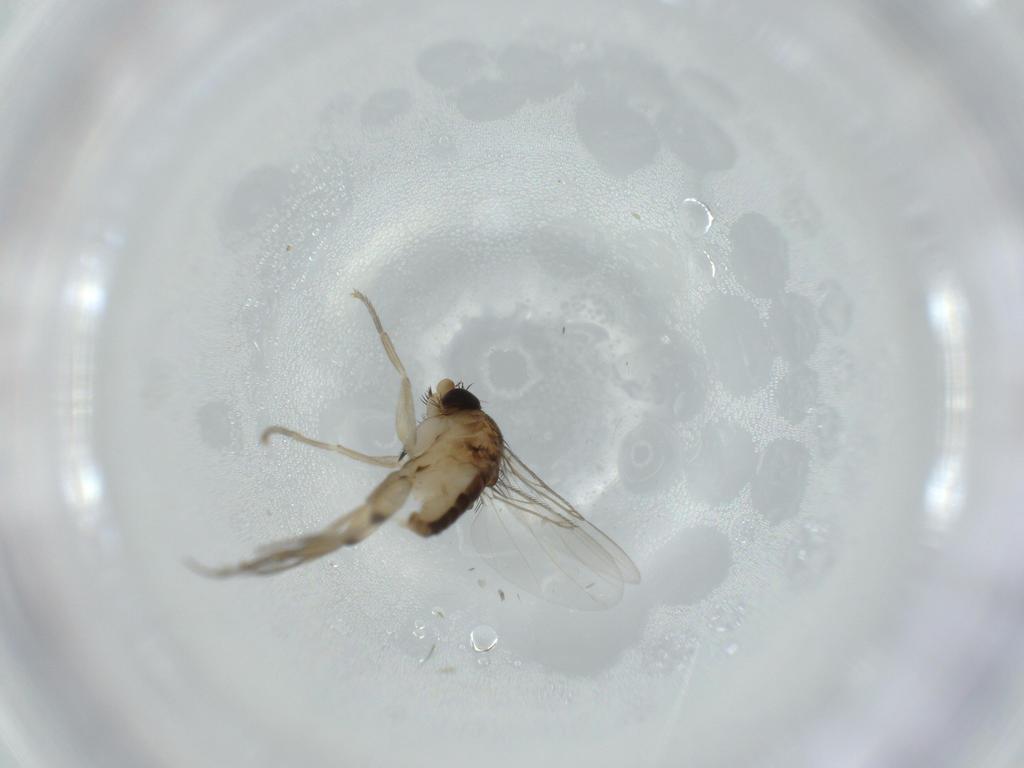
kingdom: Animalia
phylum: Arthropoda
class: Insecta
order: Diptera
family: Phoridae
